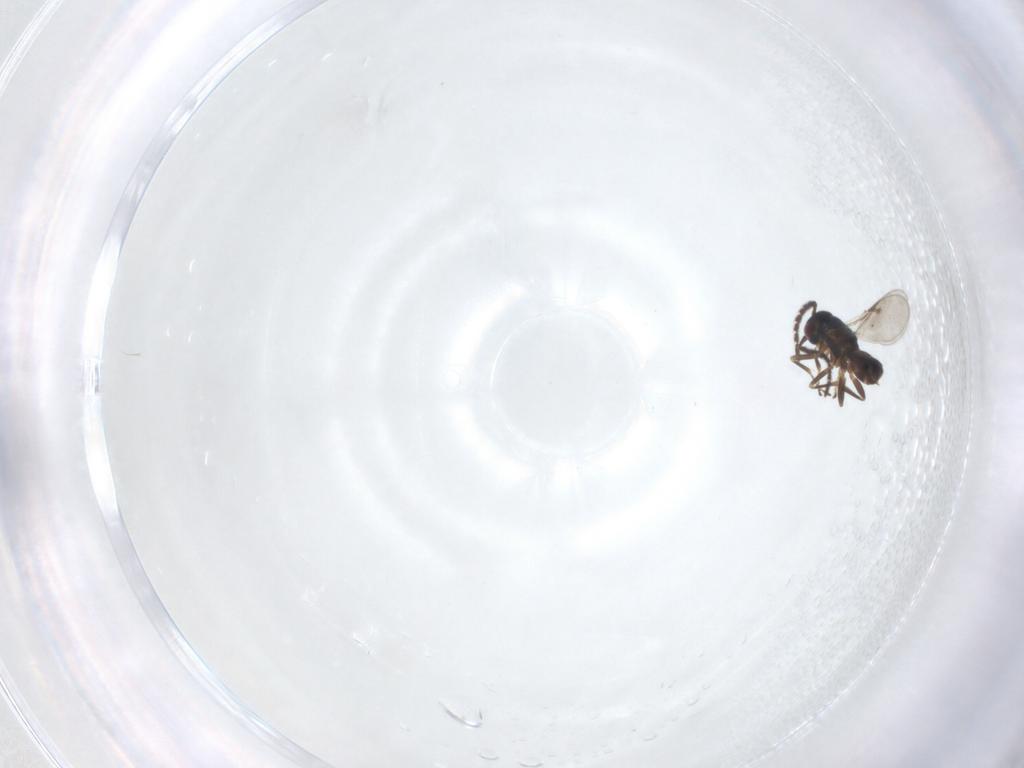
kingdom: Animalia
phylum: Arthropoda
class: Insecta
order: Hymenoptera
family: Encyrtidae
